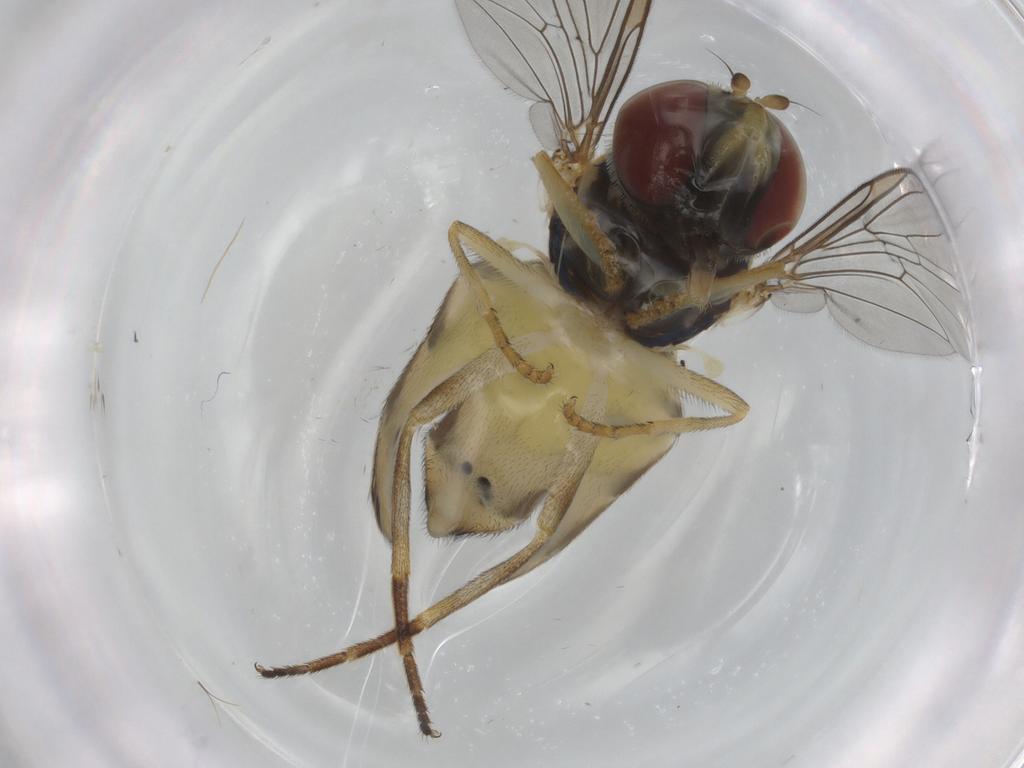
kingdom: Animalia
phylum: Arthropoda
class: Insecta
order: Diptera
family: Syrphidae
